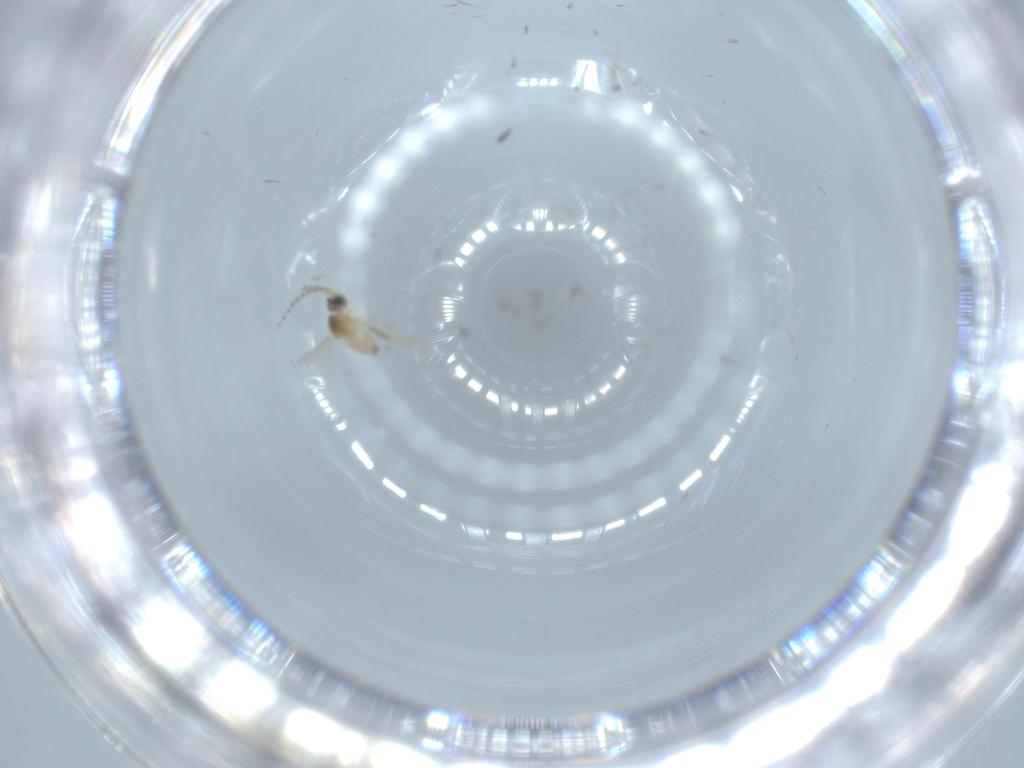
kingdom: Animalia
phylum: Arthropoda
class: Insecta
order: Diptera
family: Cecidomyiidae
